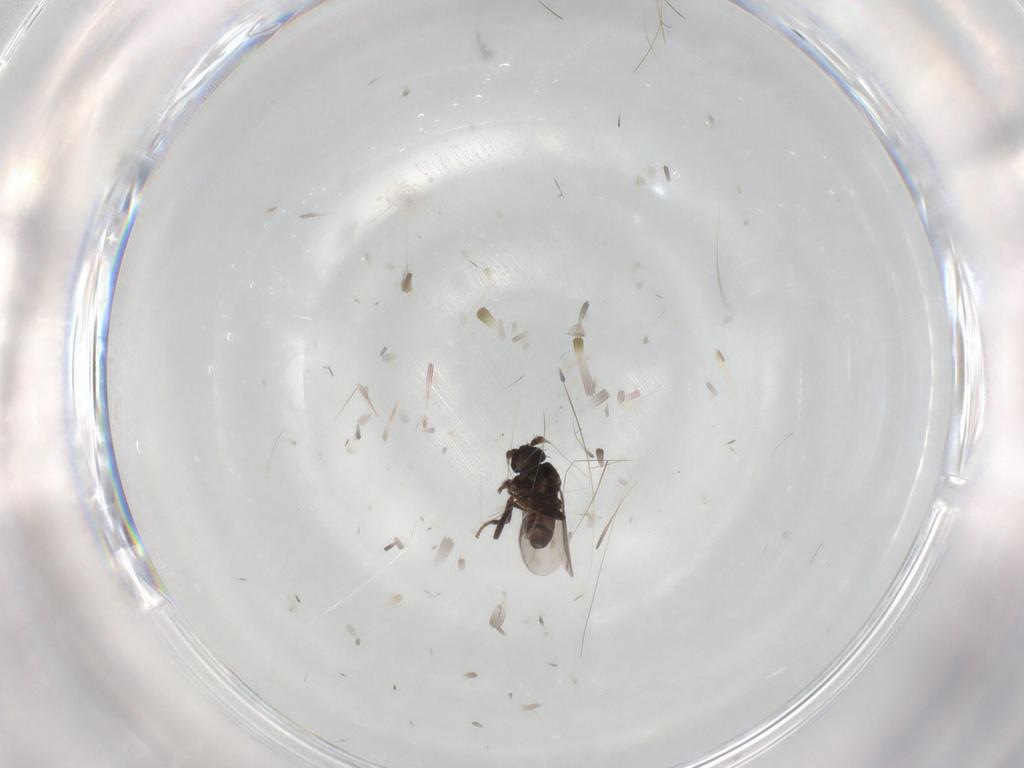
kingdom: Animalia
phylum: Arthropoda
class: Insecta
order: Diptera
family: Sphaeroceridae
